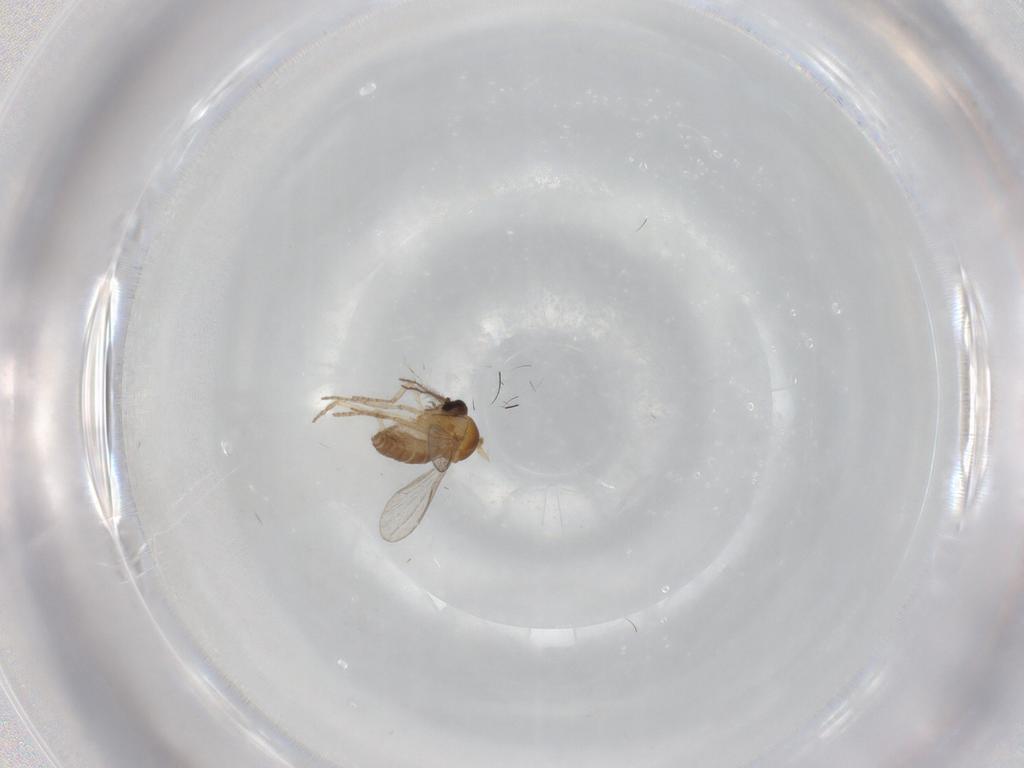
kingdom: Animalia
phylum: Arthropoda
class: Insecta
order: Diptera
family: Ceratopogonidae
